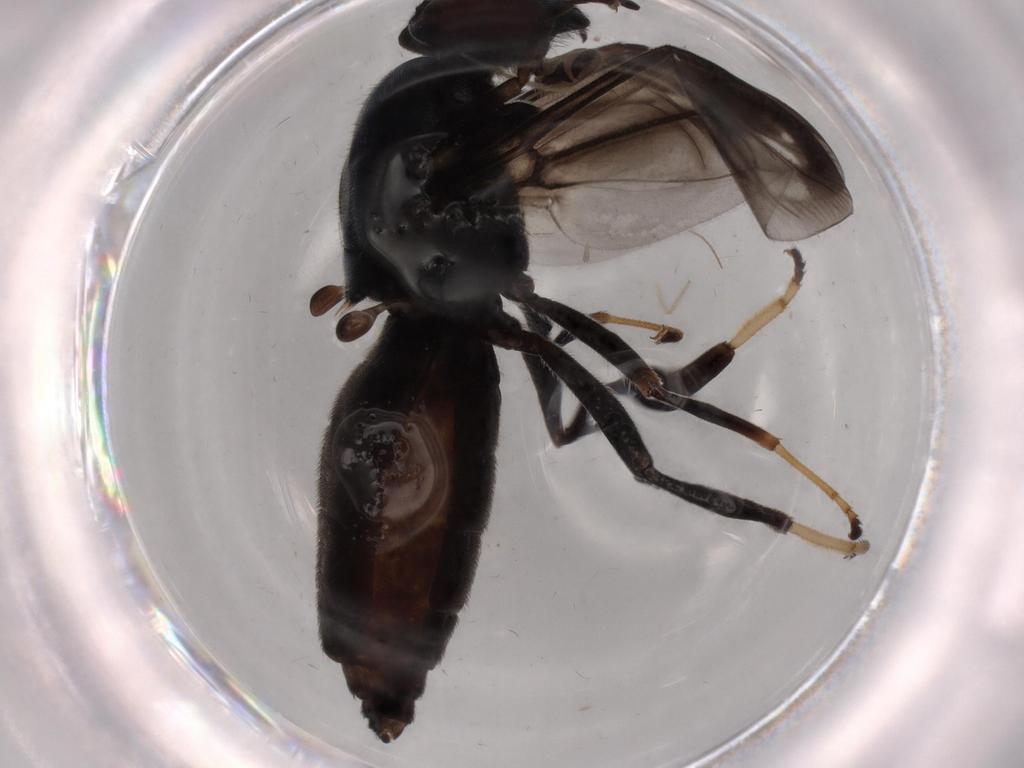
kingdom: Animalia
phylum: Arthropoda
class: Insecta
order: Diptera
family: Stratiomyidae
